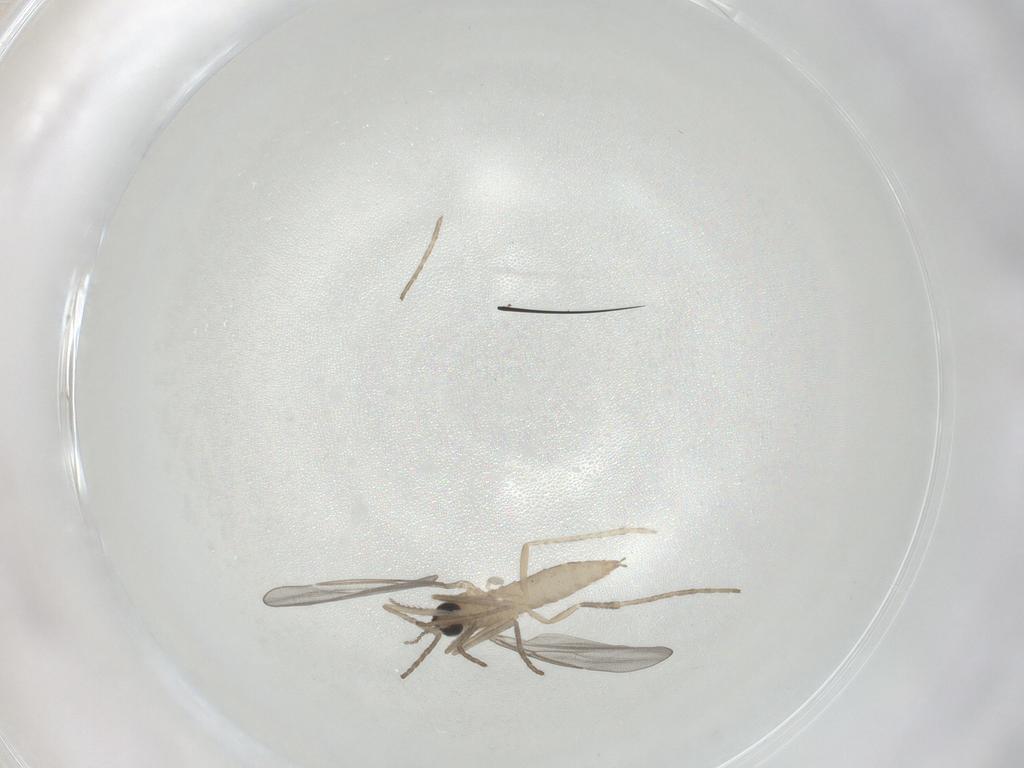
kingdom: Animalia
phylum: Arthropoda
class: Insecta
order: Diptera
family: Cecidomyiidae
